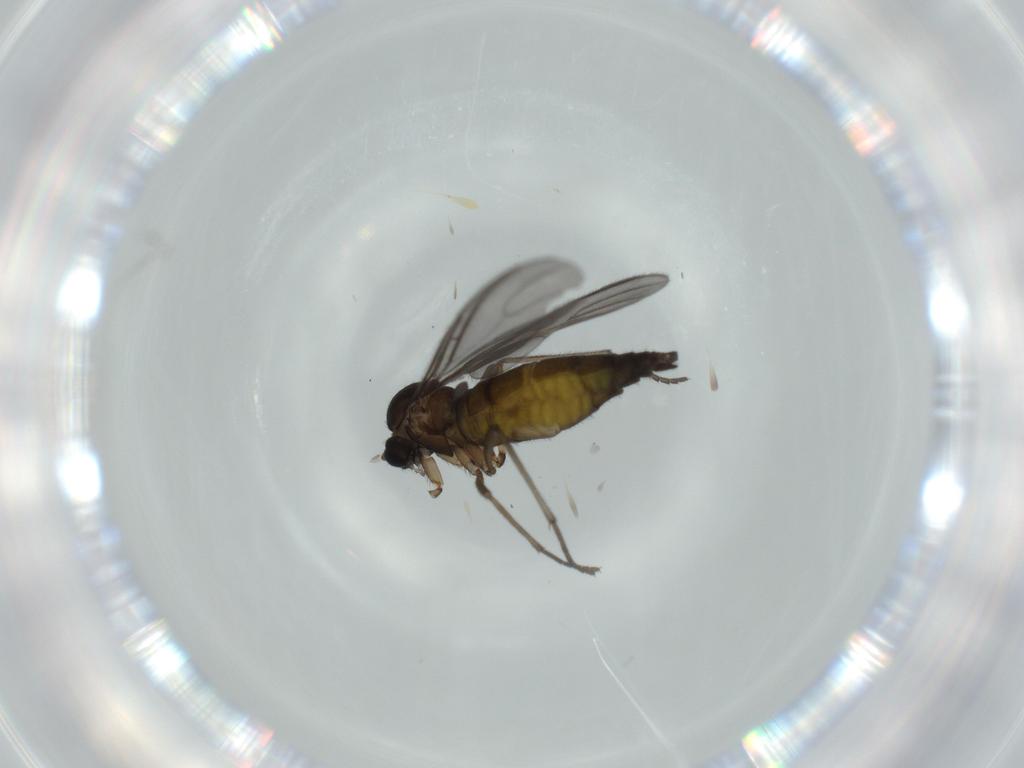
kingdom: Animalia
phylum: Arthropoda
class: Insecta
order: Diptera
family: Sciaridae
